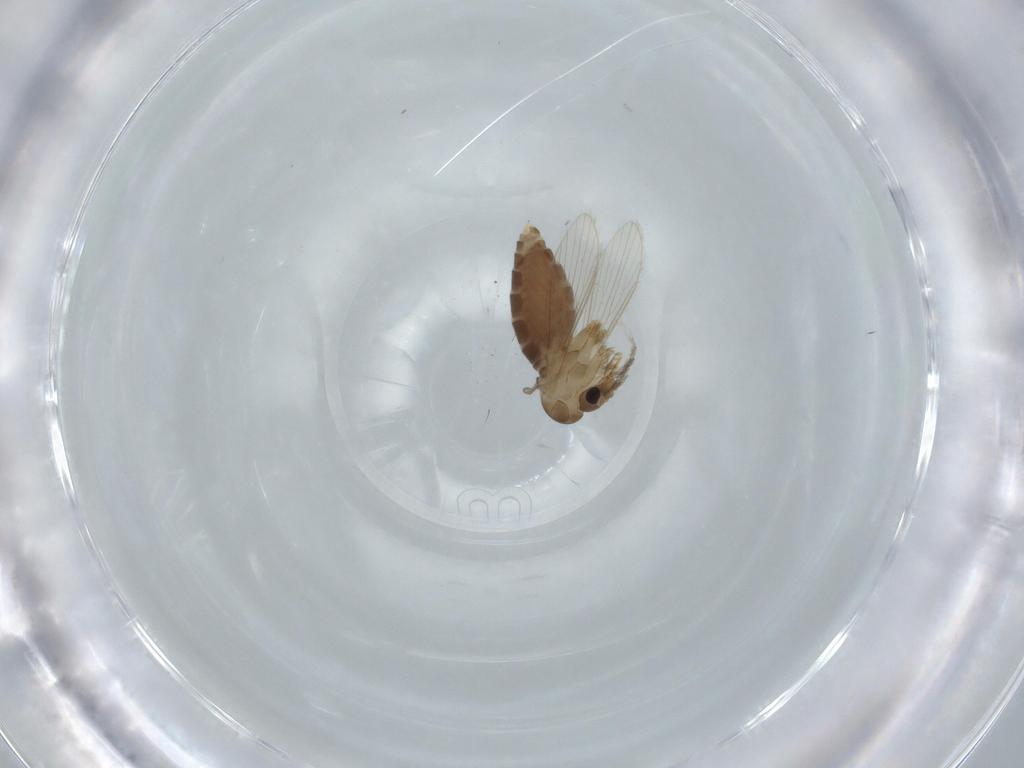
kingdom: Animalia
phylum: Arthropoda
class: Insecta
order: Diptera
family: Psychodidae
